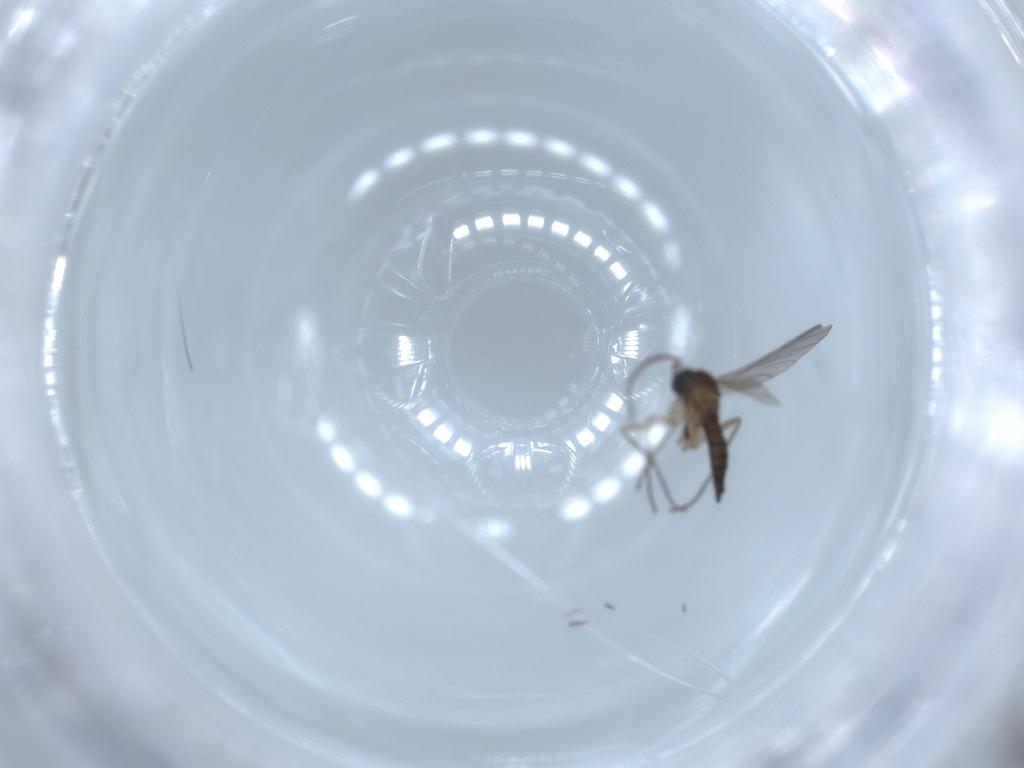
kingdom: Animalia
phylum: Arthropoda
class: Insecta
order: Diptera
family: Sciaridae
